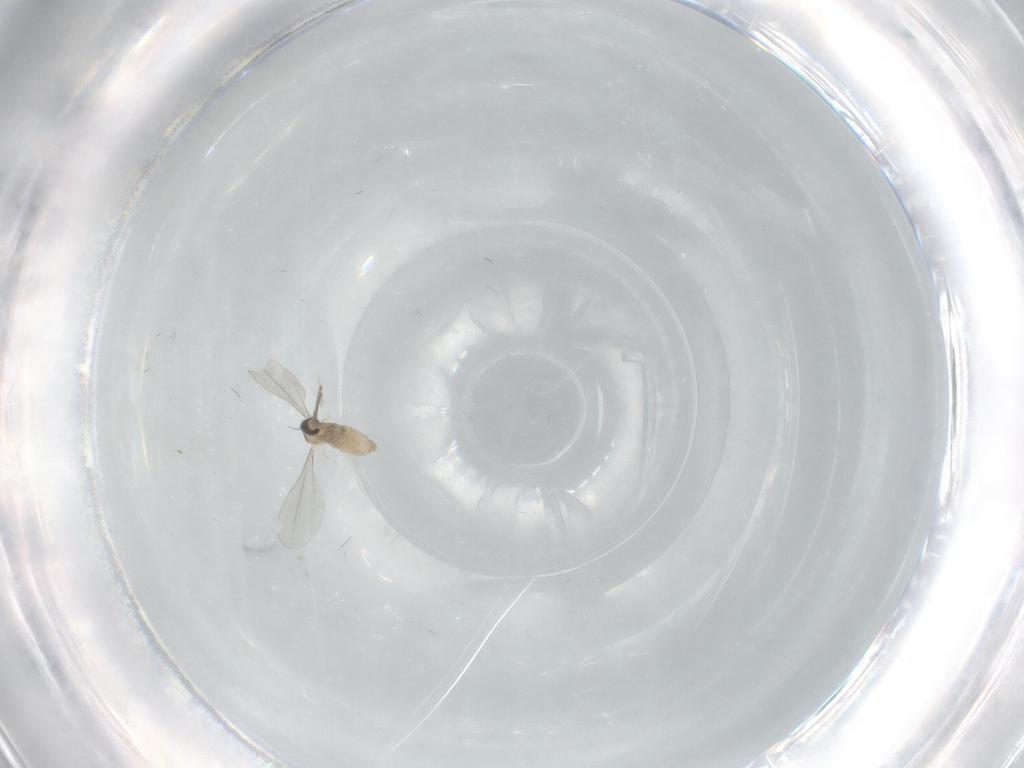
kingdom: Animalia
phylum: Arthropoda
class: Insecta
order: Diptera
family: Cecidomyiidae
